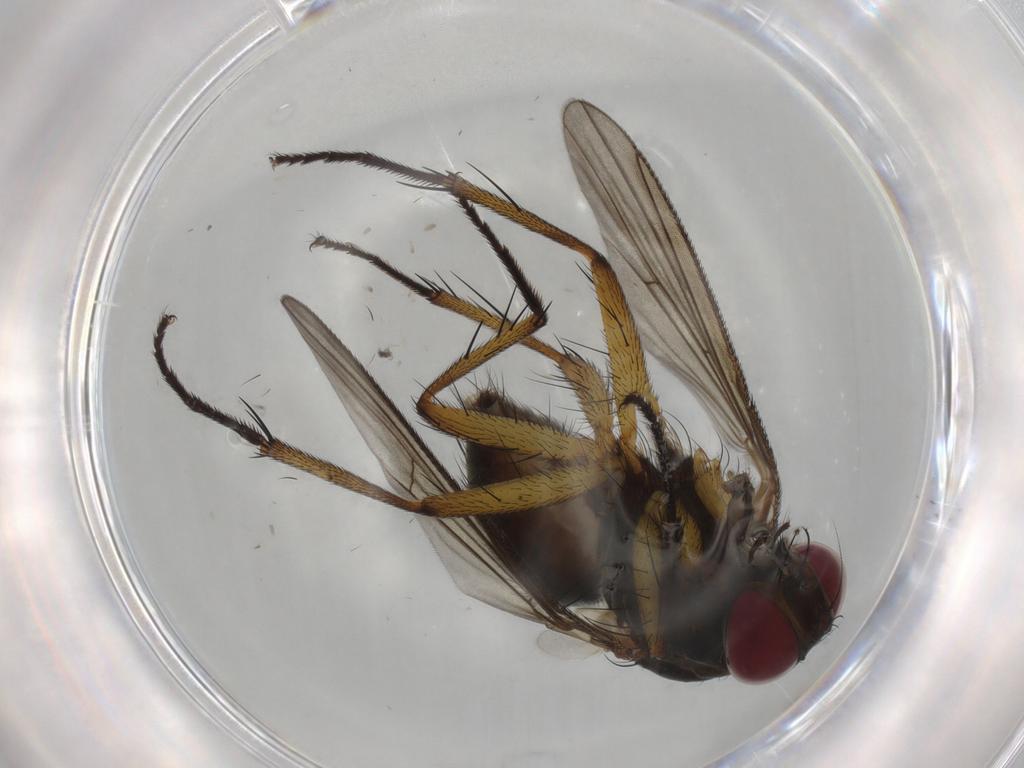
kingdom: Animalia
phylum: Arthropoda
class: Insecta
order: Diptera
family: Muscidae
